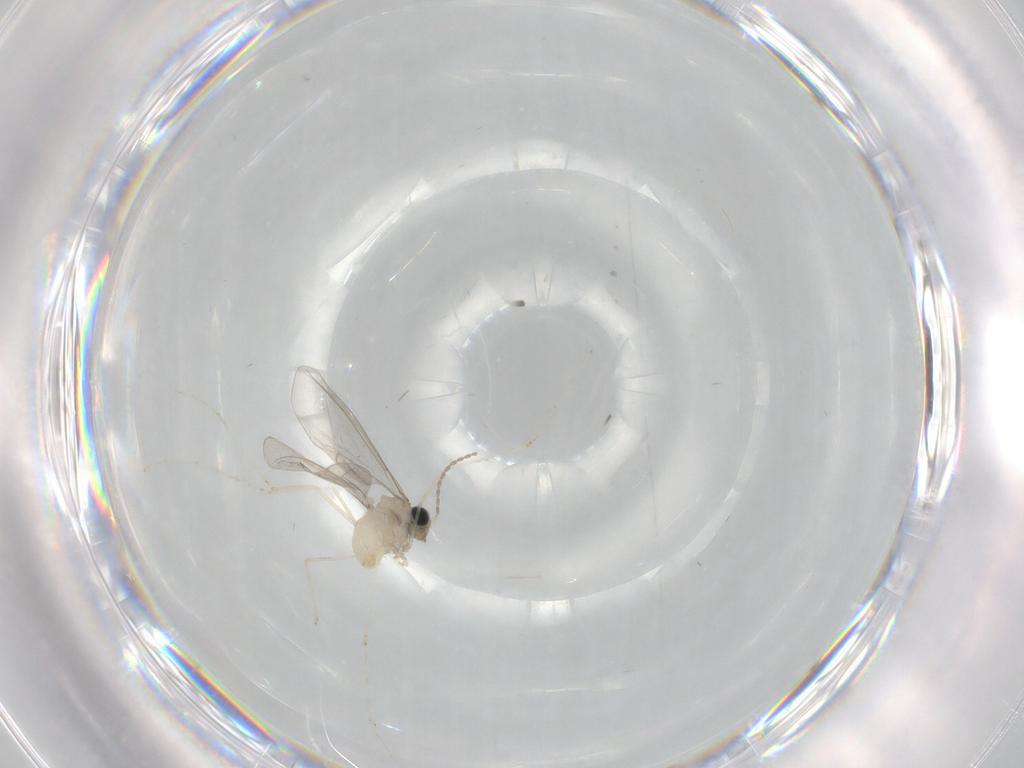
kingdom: Animalia
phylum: Arthropoda
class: Insecta
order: Diptera
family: Cecidomyiidae
